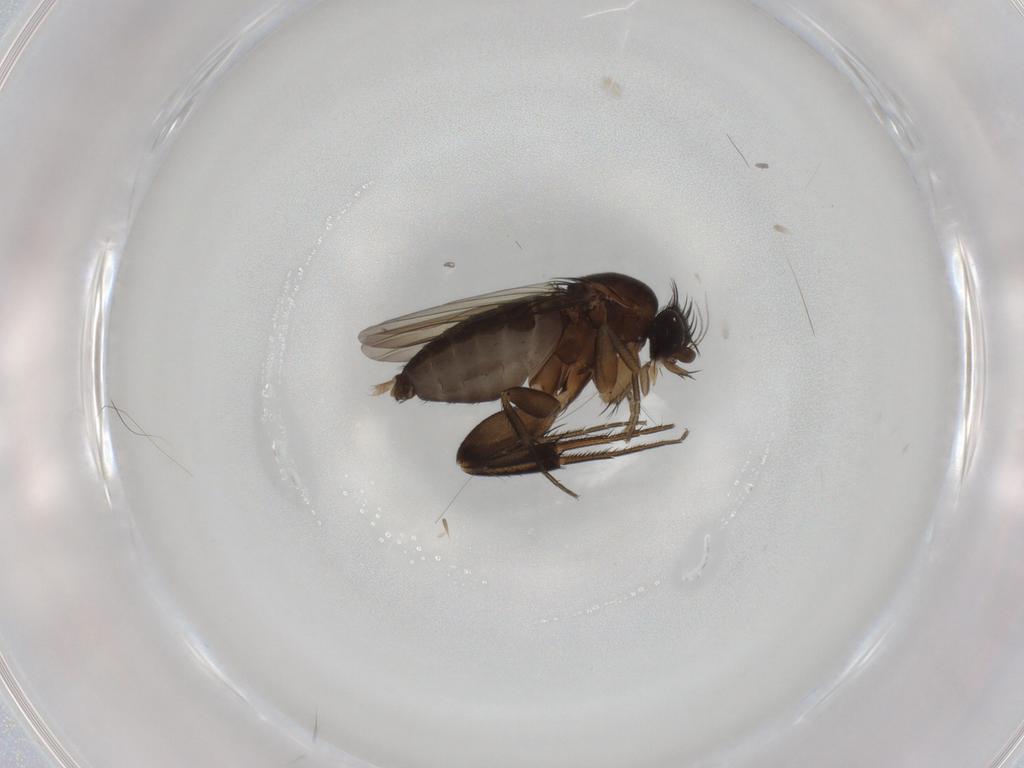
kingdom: Animalia
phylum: Arthropoda
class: Insecta
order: Diptera
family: Phoridae
